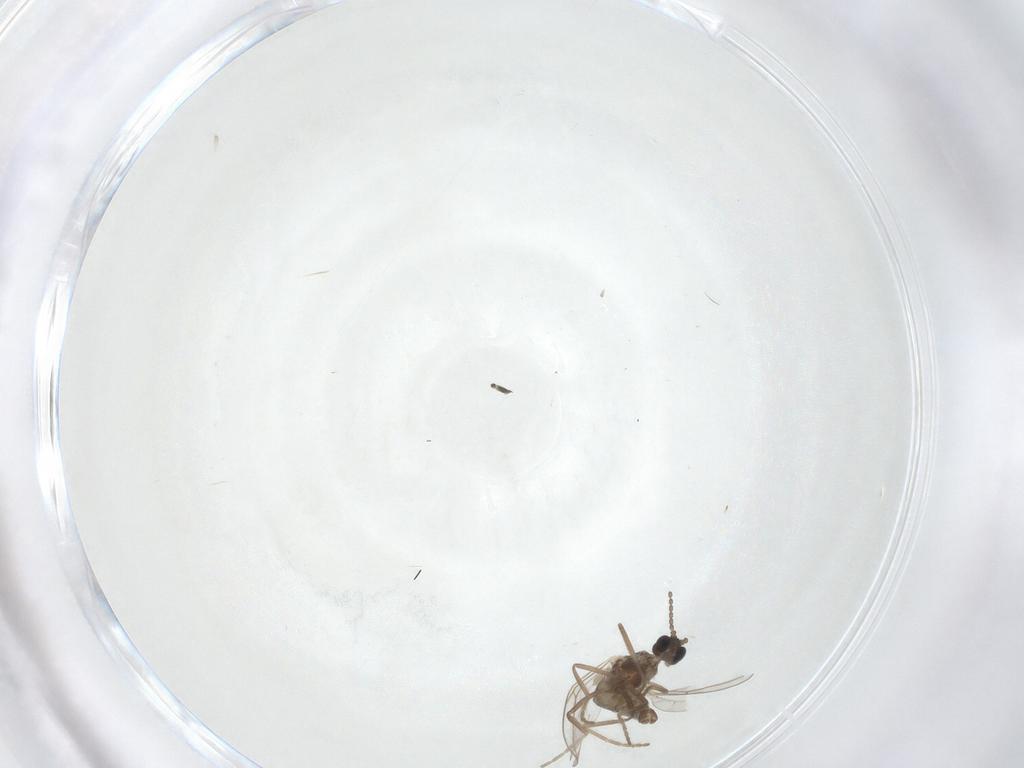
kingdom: Animalia
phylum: Arthropoda
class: Insecta
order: Diptera
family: Cecidomyiidae
